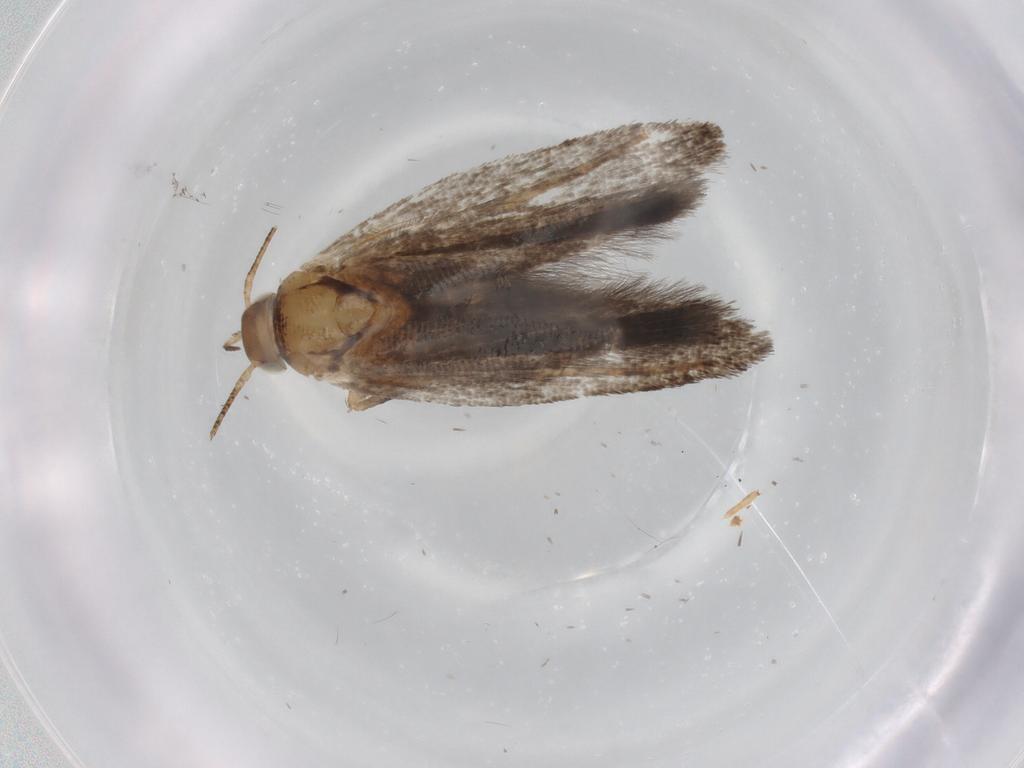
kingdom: Animalia
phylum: Arthropoda
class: Insecta
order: Lepidoptera
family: Gelechiidae
